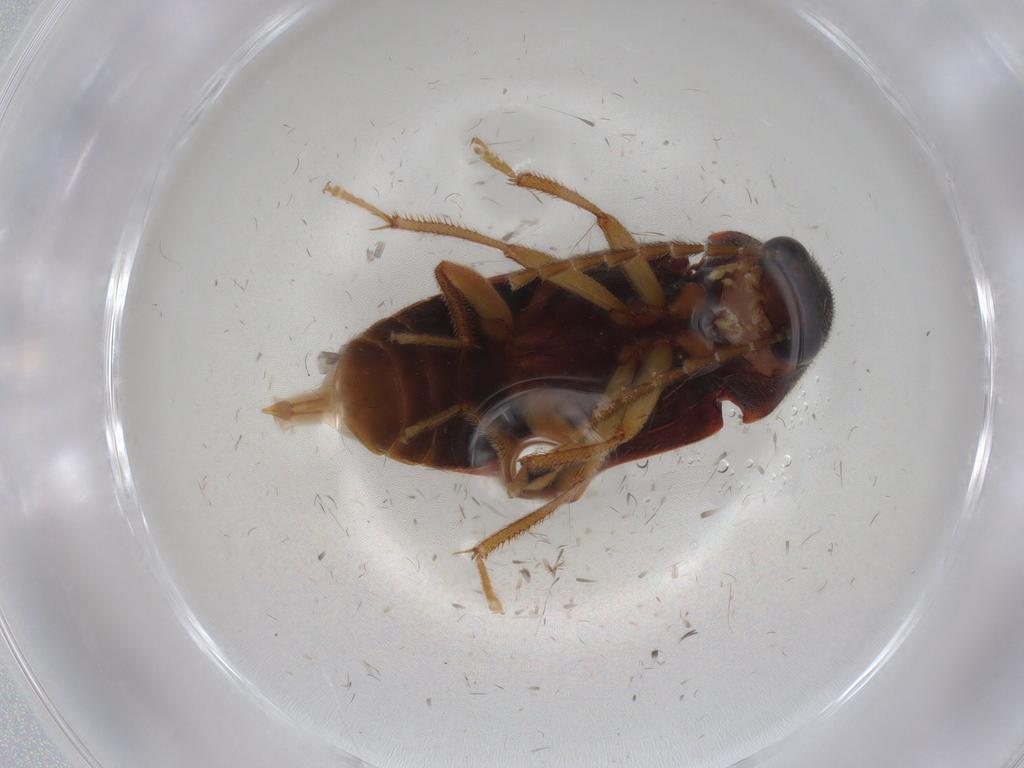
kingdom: Animalia
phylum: Arthropoda
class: Insecta
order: Coleoptera
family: Ptilodactylidae
